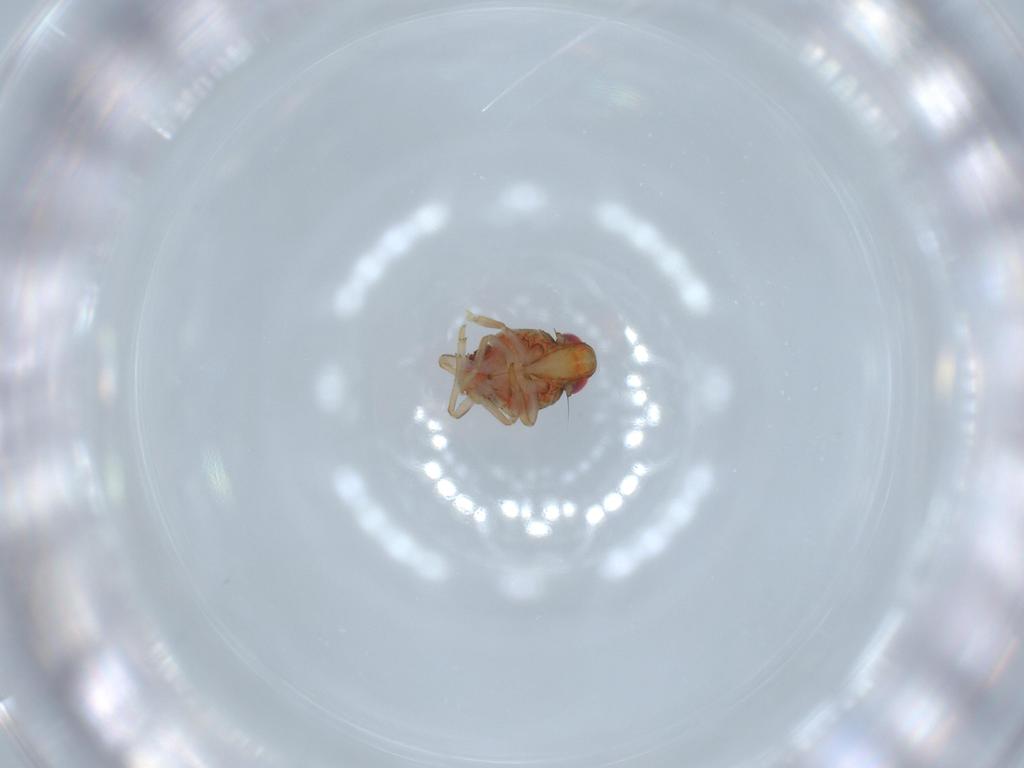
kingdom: Animalia
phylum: Arthropoda
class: Insecta
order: Hemiptera
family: Issidae
